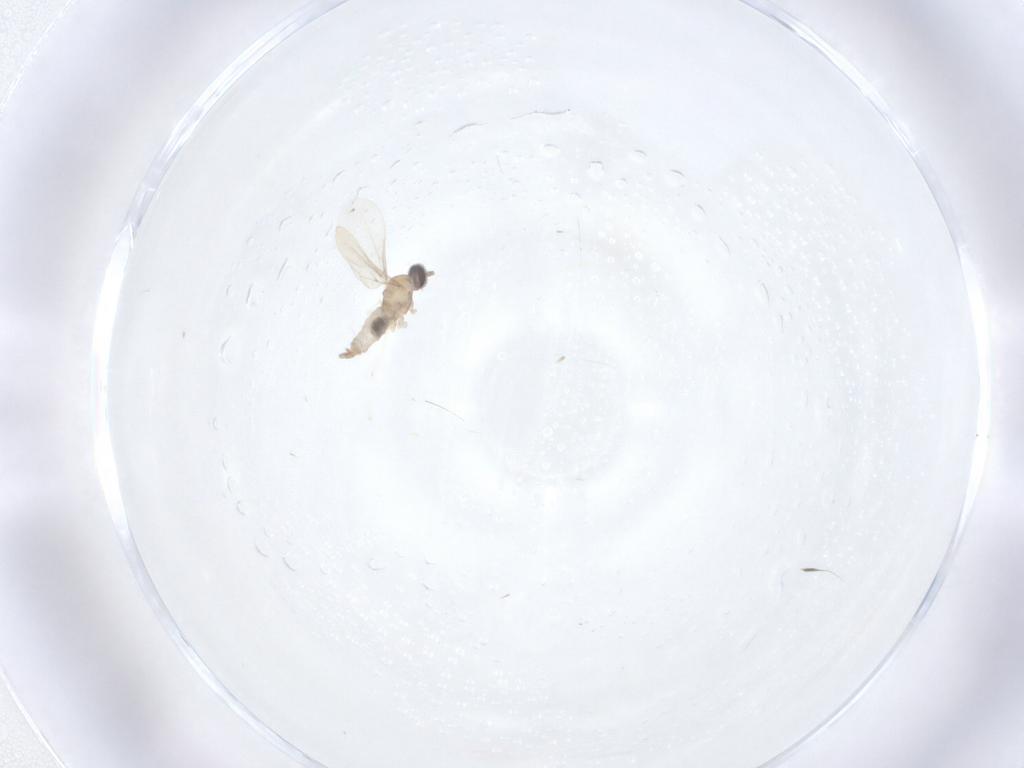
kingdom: Animalia
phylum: Arthropoda
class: Insecta
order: Diptera
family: Cecidomyiidae
